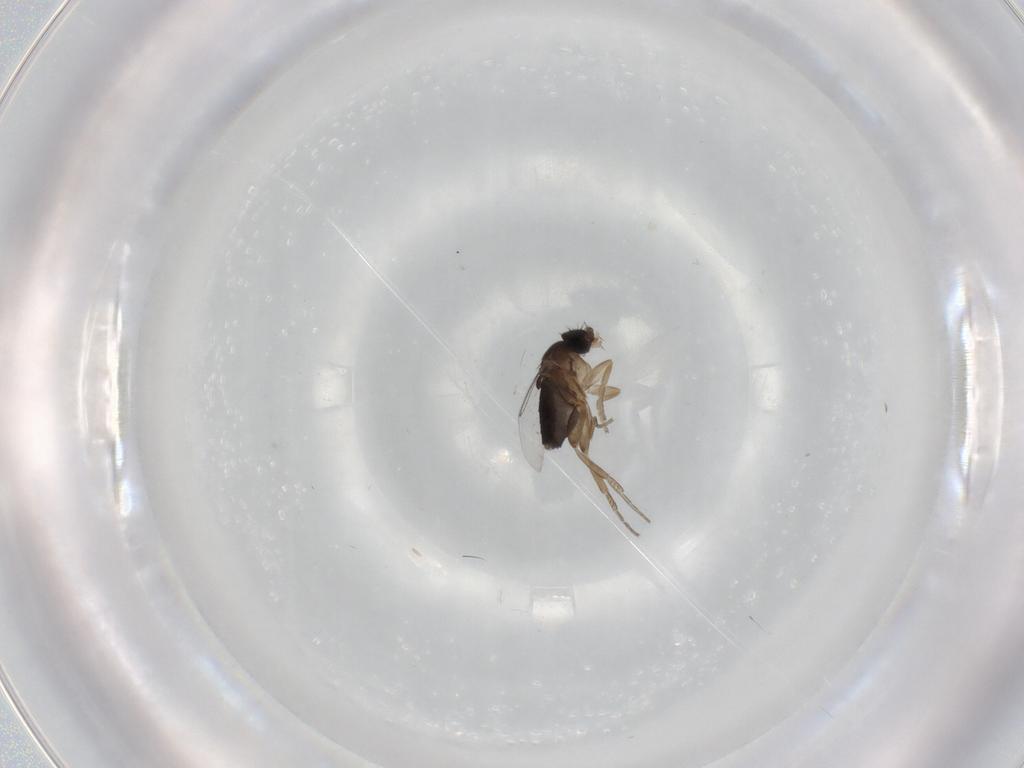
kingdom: Animalia
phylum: Arthropoda
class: Insecta
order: Diptera
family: Phoridae
